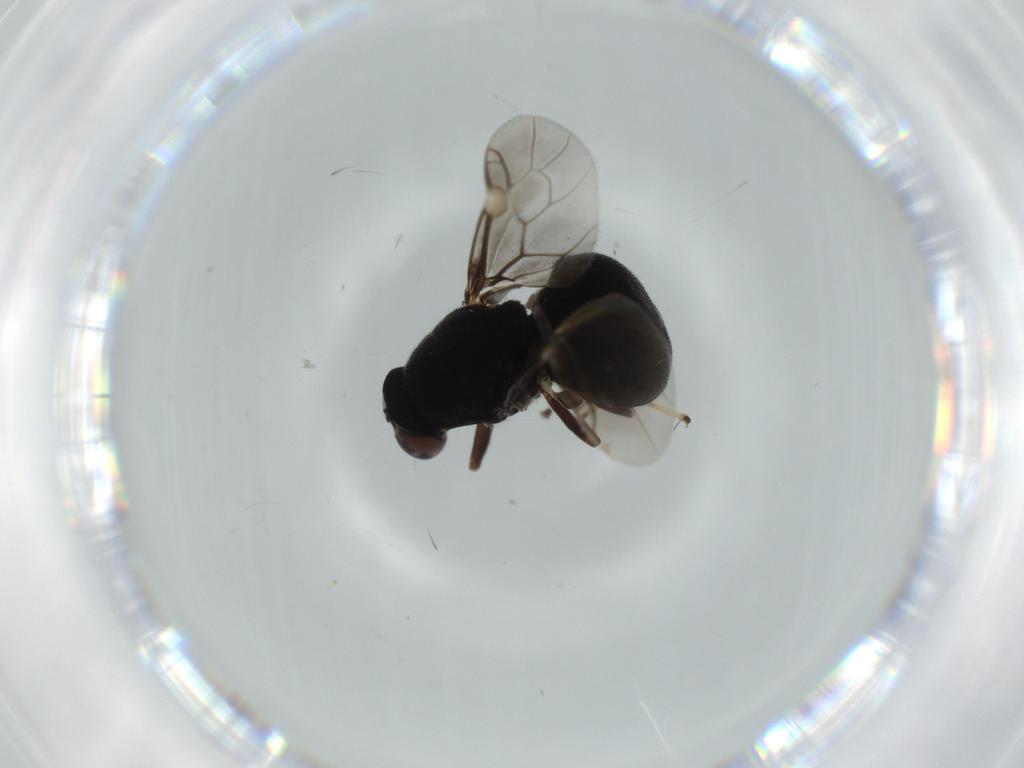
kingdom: Animalia
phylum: Arthropoda
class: Insecta
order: Diptera
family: Stratiomyidae
